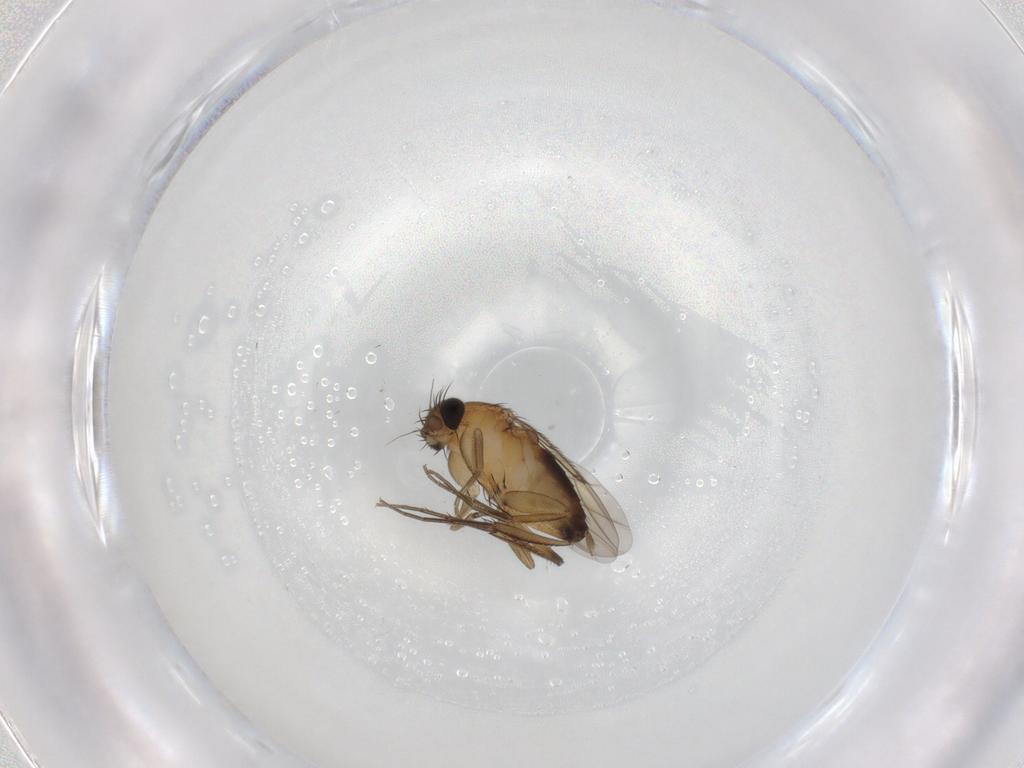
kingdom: Animalia
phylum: Arthropoda
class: Insecta
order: Diptera
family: Phoridae
